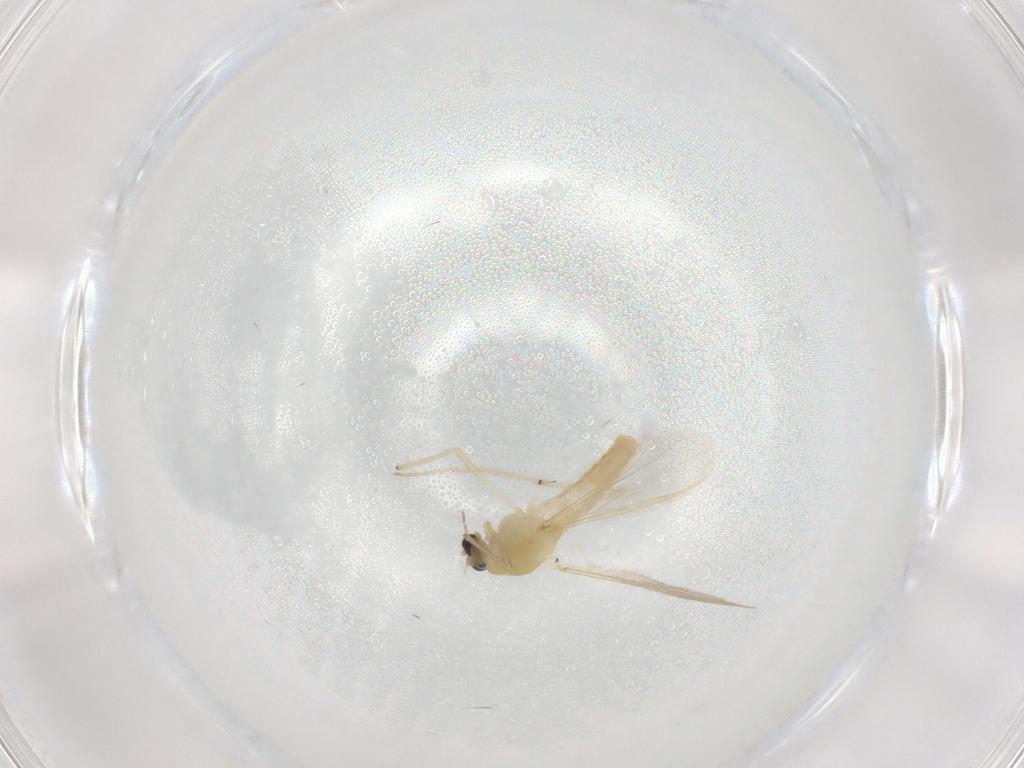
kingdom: Animalia
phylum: Arthropoda
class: Insecta
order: Diptera
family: Chironomidae
